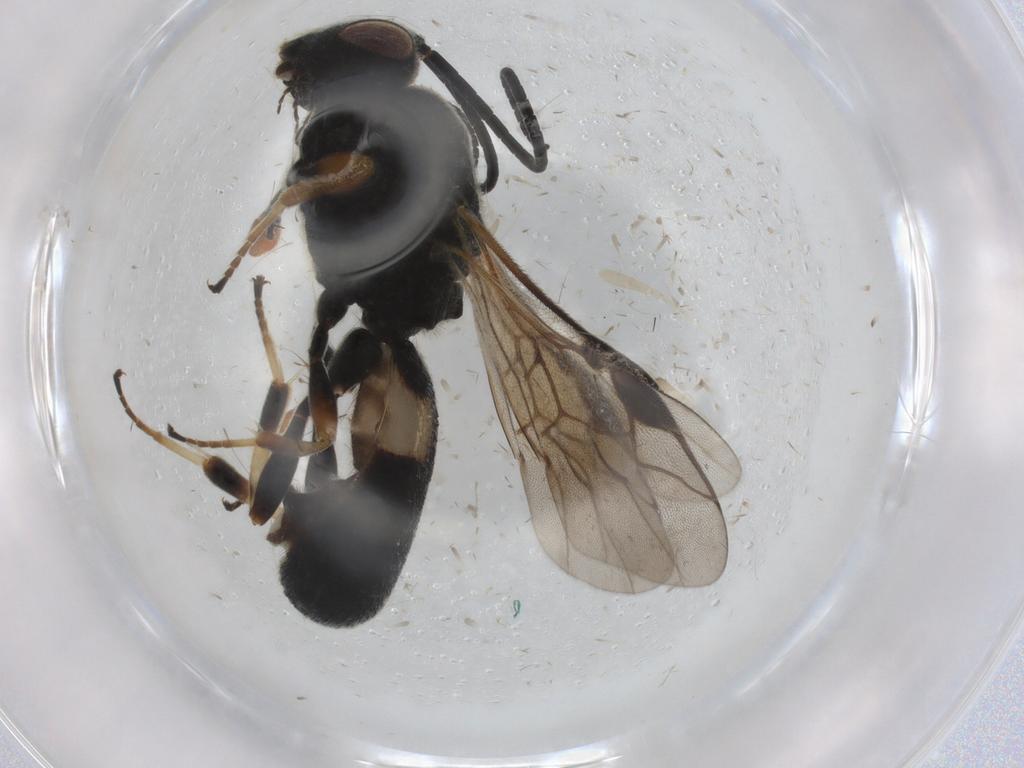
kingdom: Animalia
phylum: Arthropoda
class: Insecta
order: Hymenoptera
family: Braconidae
